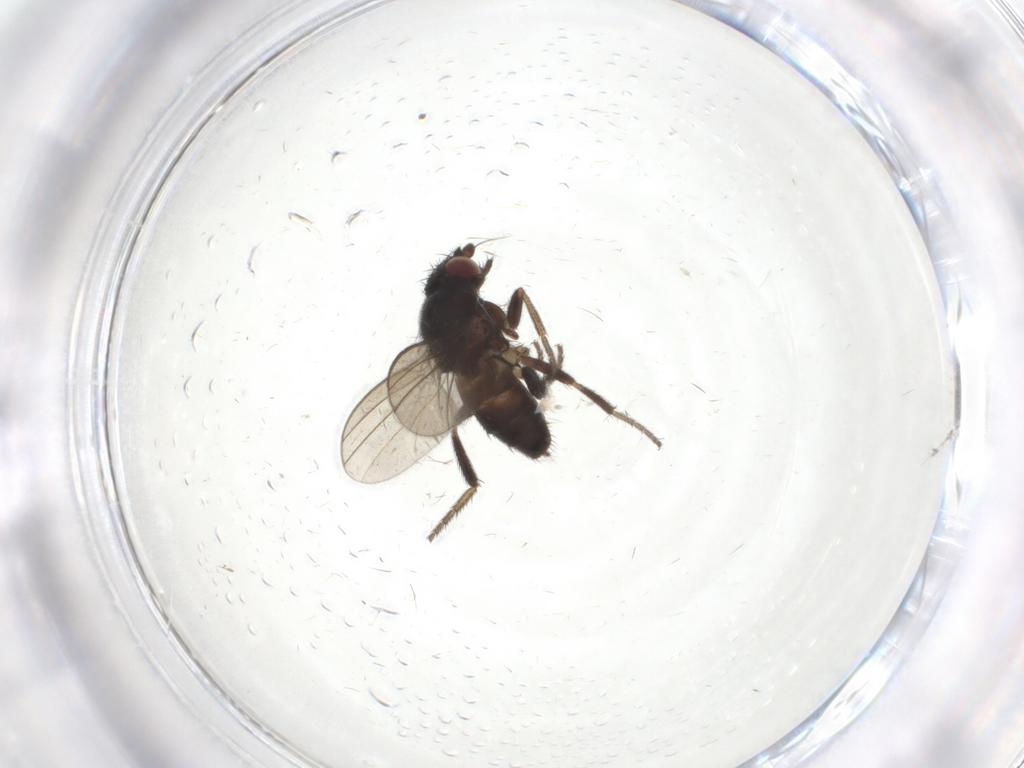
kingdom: Animalia
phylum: Arthropoda
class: Insecta
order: Diptera
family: Milichiidae
